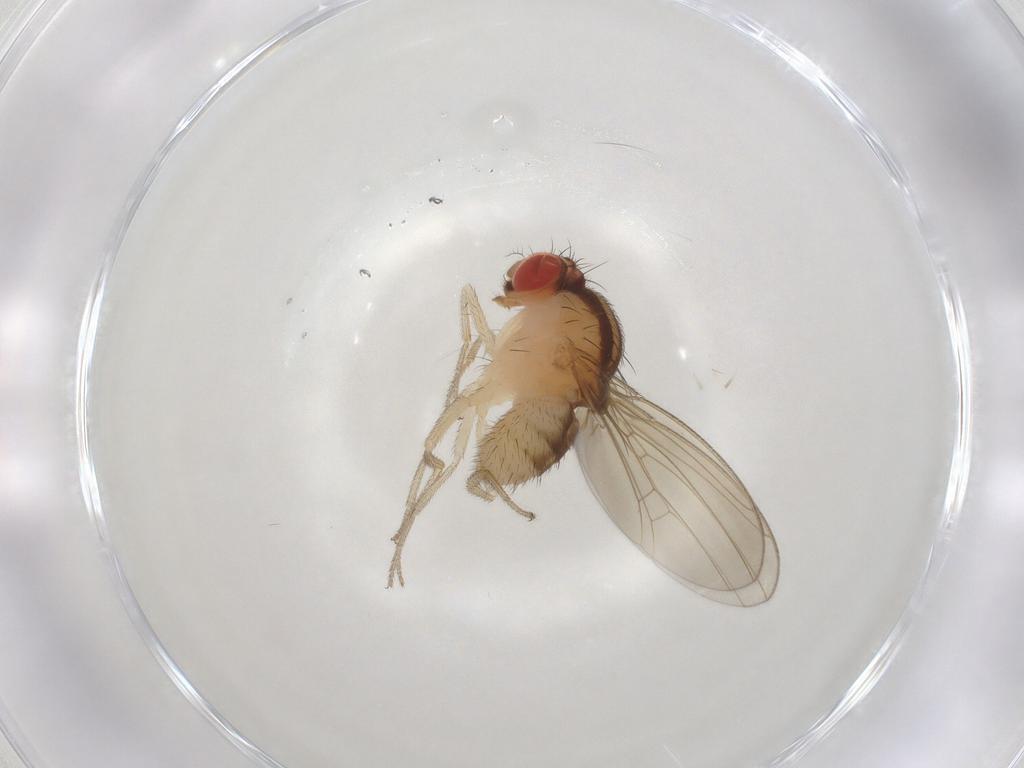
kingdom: Animalia
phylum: Arthropoda
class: Insecta
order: Diptera
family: Drosophilidae
